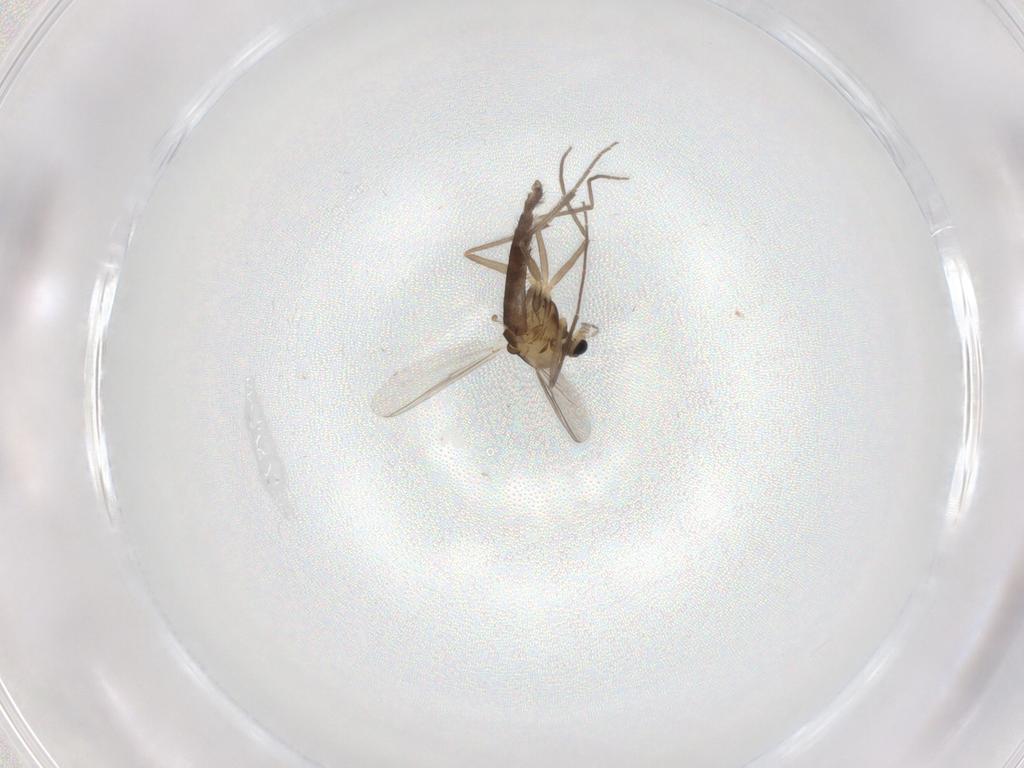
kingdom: Animalia
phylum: Arthropoda
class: Insecta
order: Diptera
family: Chironomidae
